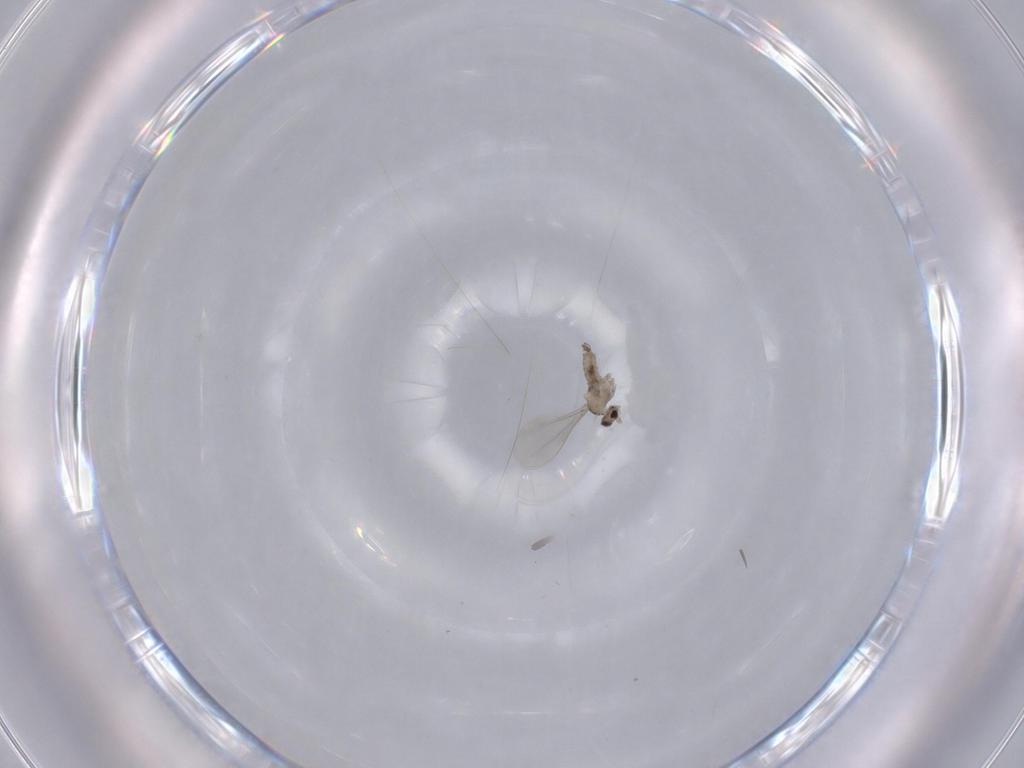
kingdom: Animalia
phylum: Arthropoda
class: Insecta
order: Diptera
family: Cecidomyiidae
